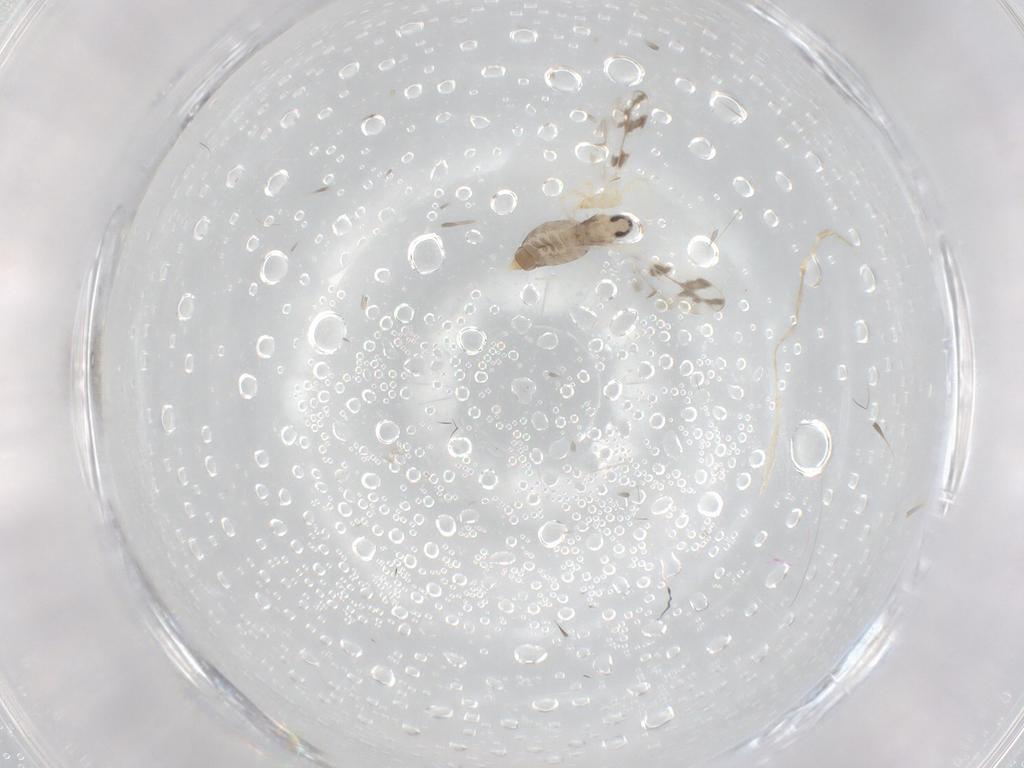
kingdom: Animalia
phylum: Arthropoda
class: Insecta
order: Diptera
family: Cecidomyiidae
